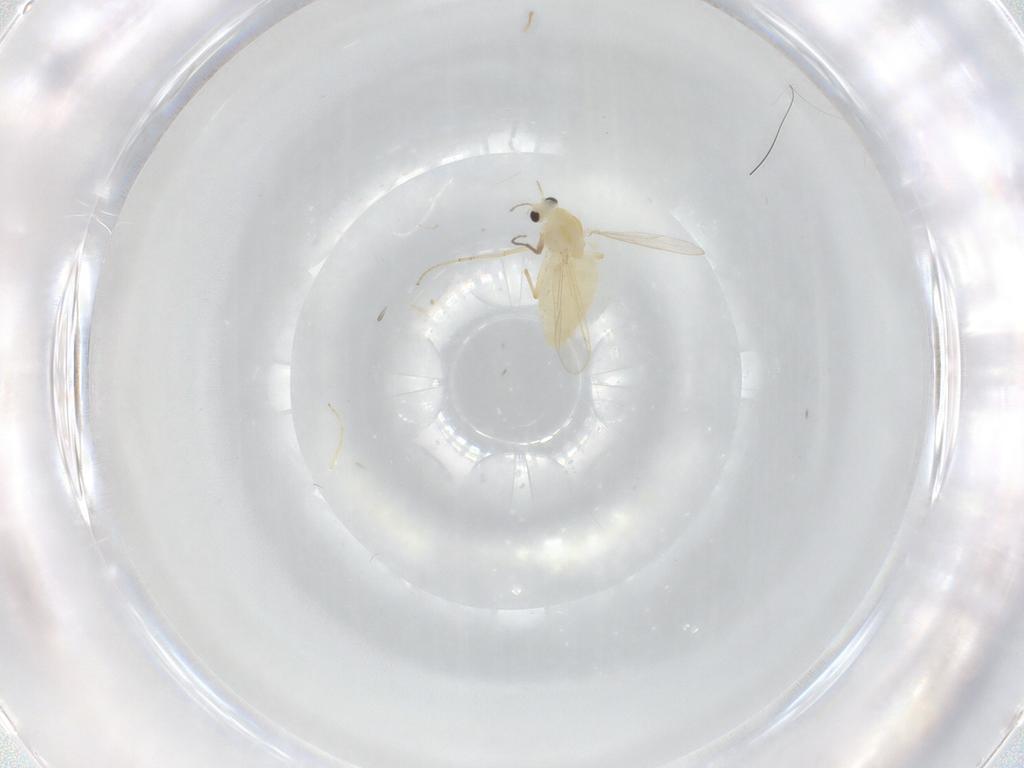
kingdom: Animalia
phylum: Arthropoda
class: Insecta
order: Diptera
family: Chironomidae
